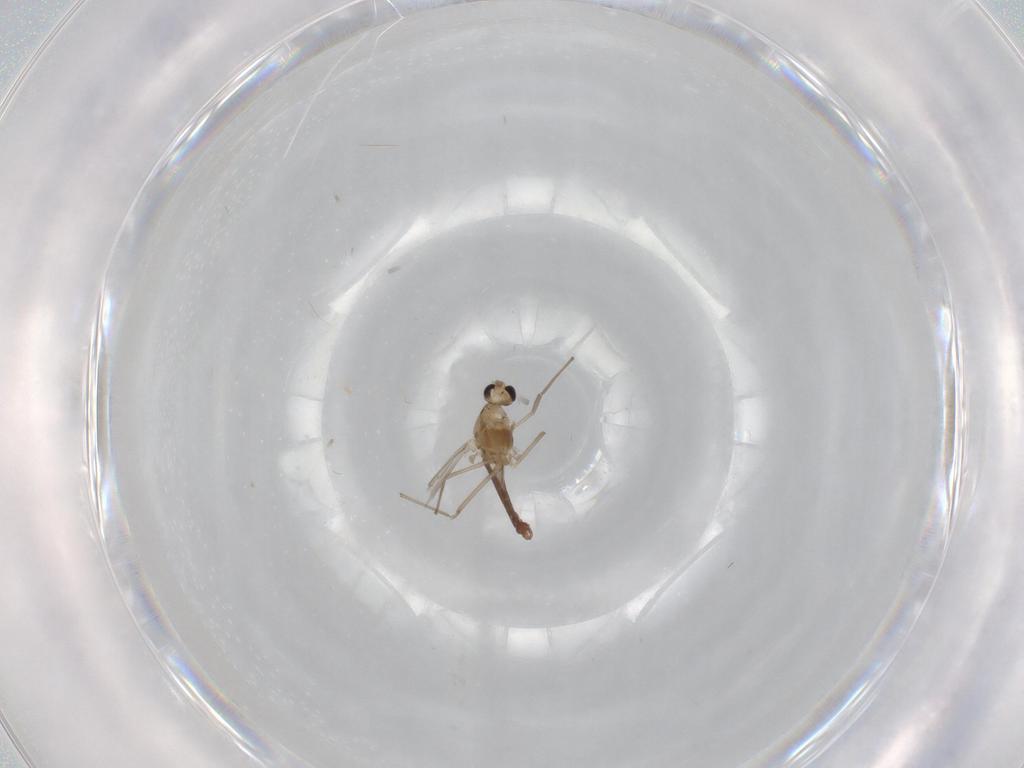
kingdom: Animalia
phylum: Arthropoda
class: Insecta
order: Diptera
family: Chironomidae
